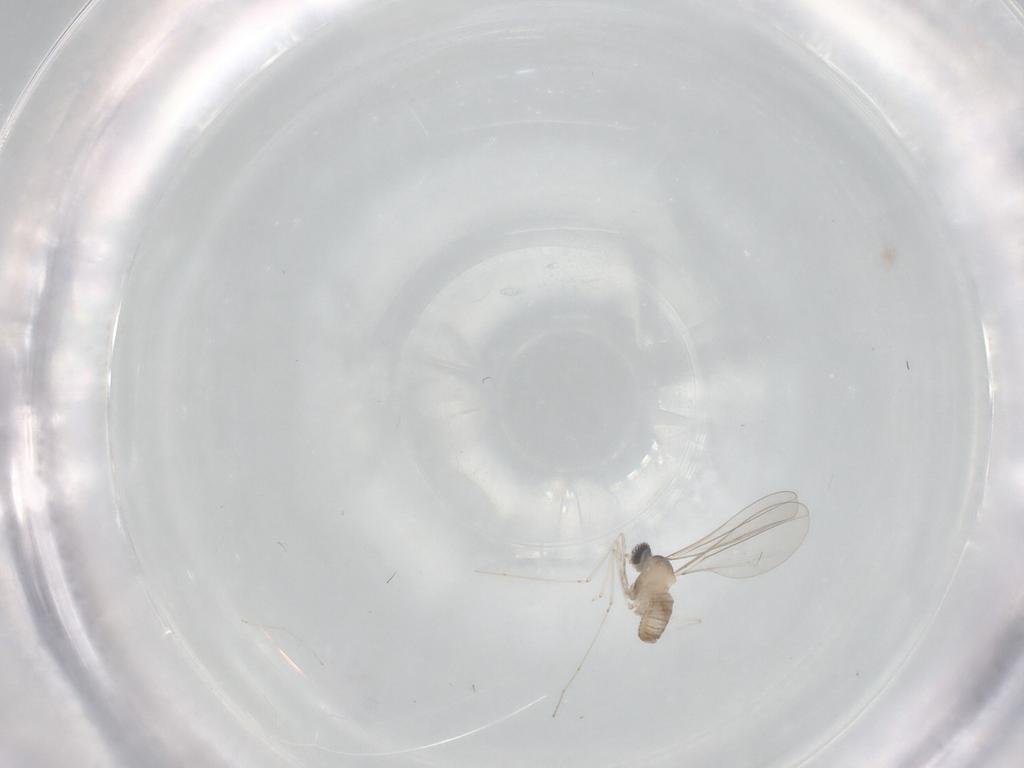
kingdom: Animalia
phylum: Arthropoda
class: Insecta
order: Diptera
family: Cecidomyiidae
